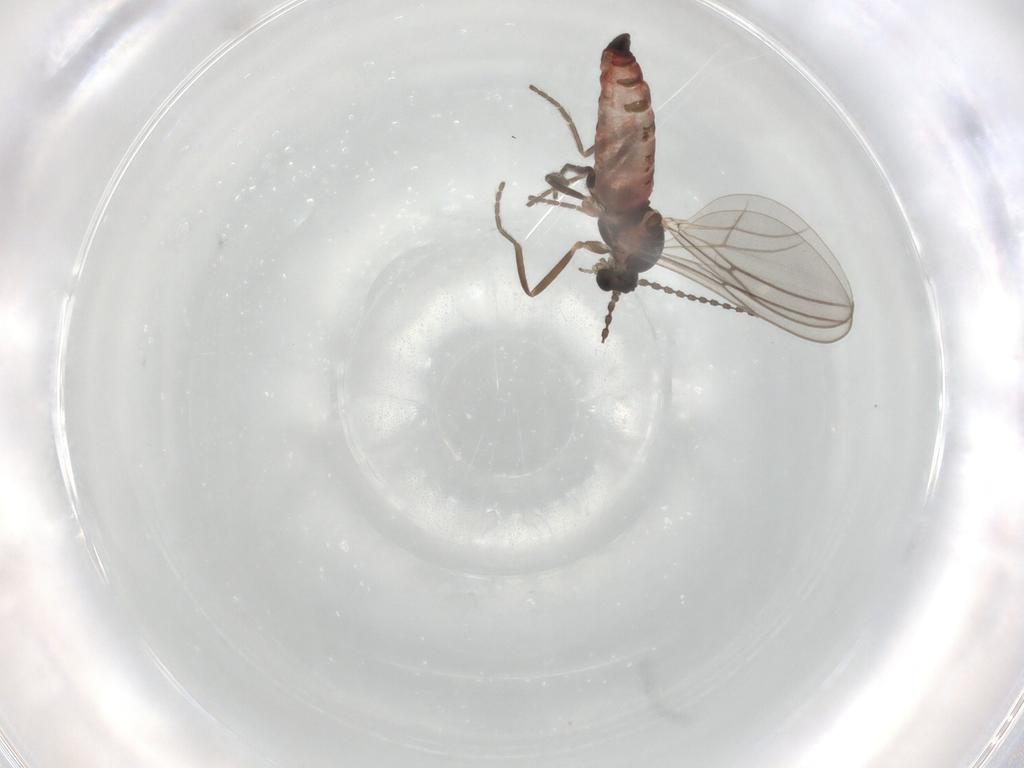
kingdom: Animalia
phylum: Arthropoda
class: Insecta
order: Diptera
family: Cecidomyiidae
